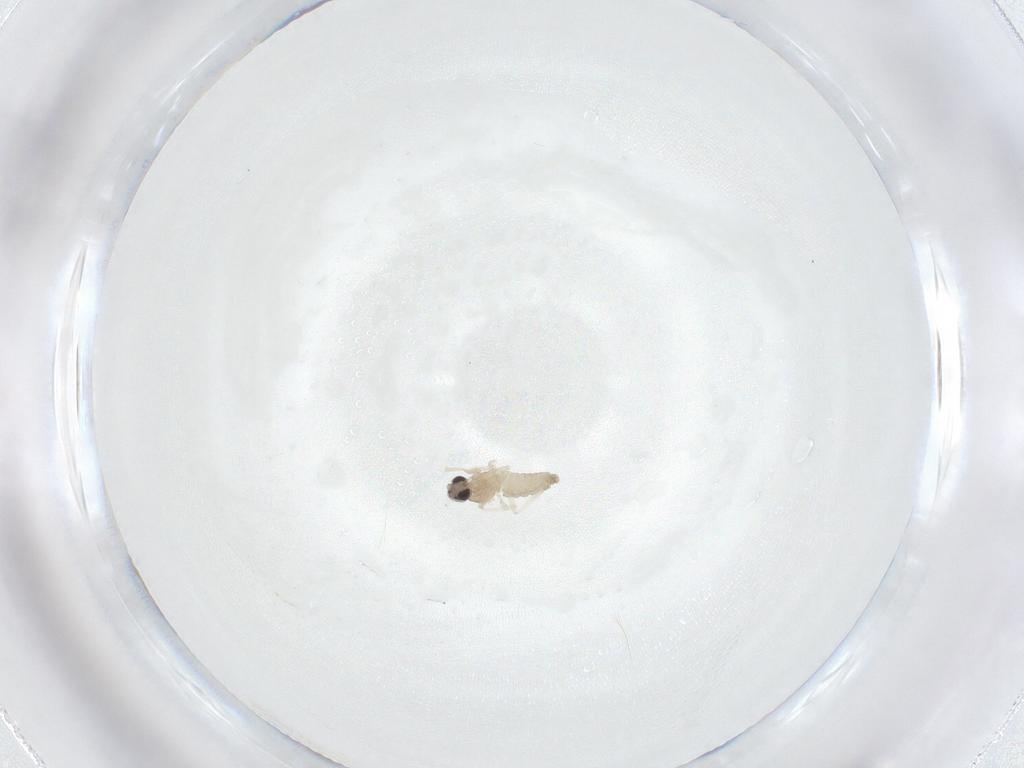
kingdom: Animalia
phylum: Arthropoda
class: Insecta
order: Diptera
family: Cecidomyiidae
